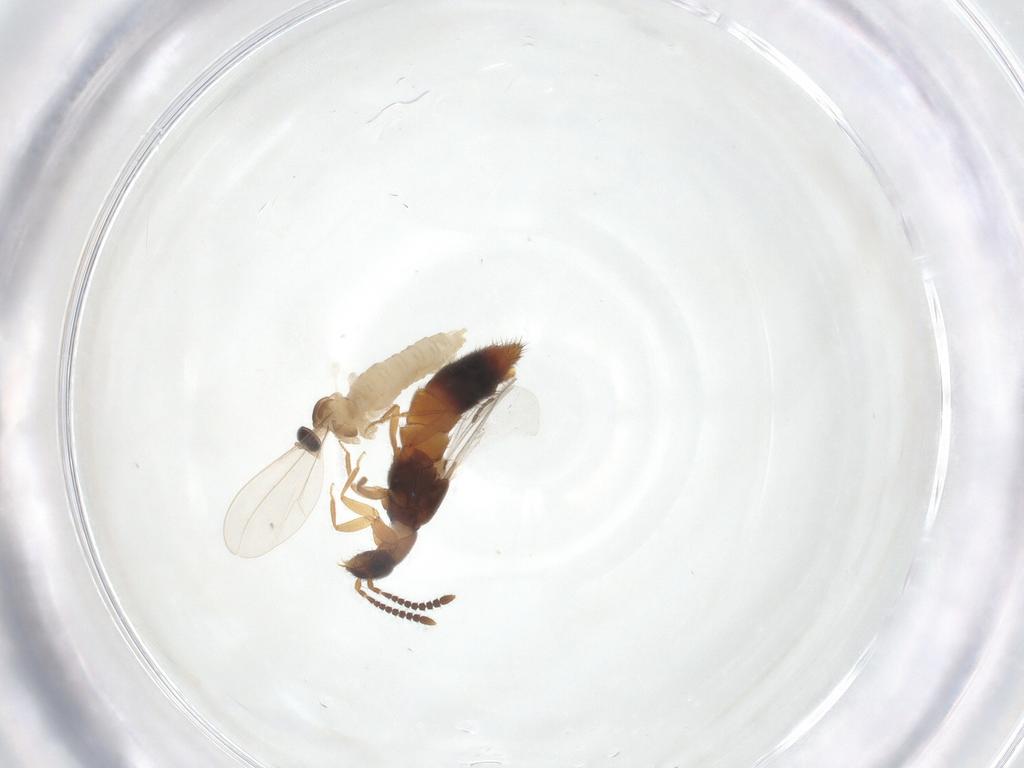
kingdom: Animalia
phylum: Arthropoda
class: Insecta
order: Diptera
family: Cecidomyiidae
